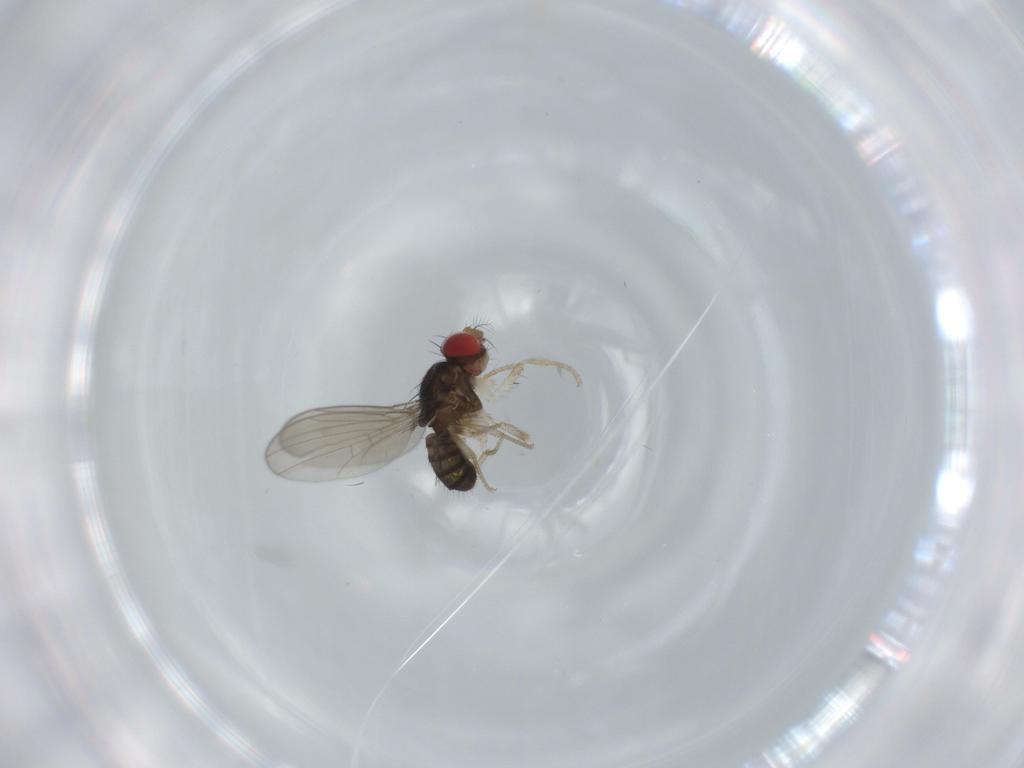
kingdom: Animalia
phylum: Arthropoda
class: Insecta
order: Diptera
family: Drosophilidae
